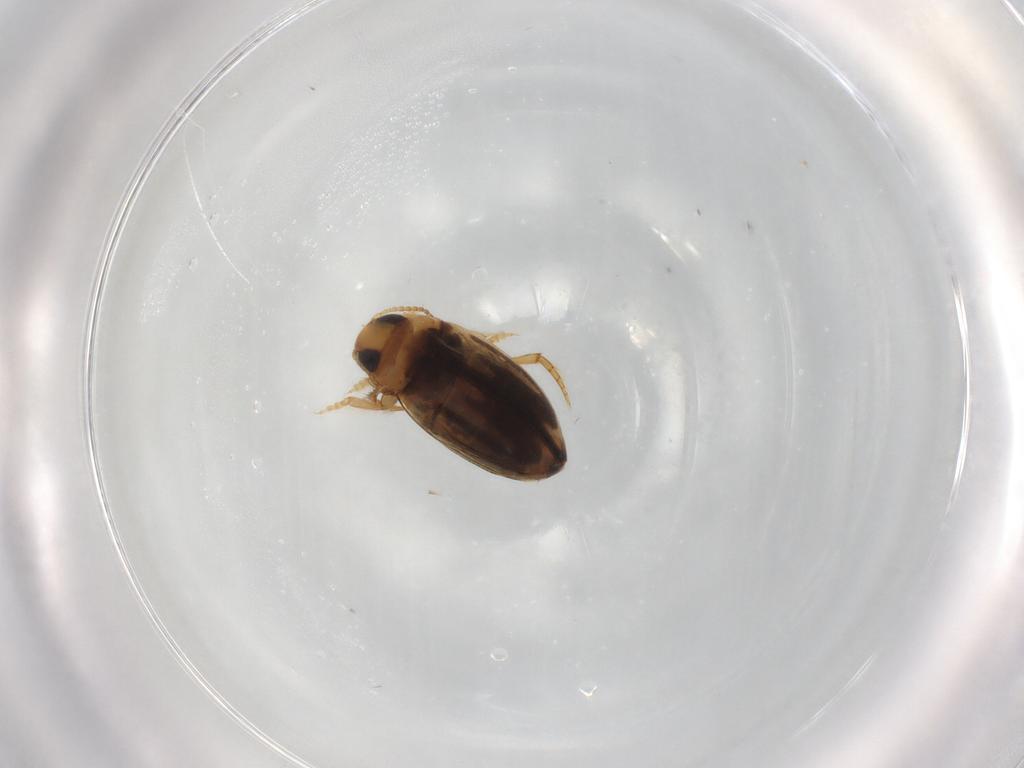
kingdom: Animalia
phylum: Arthropoda
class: Insecta
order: Coleoptera
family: Dytiscidae
